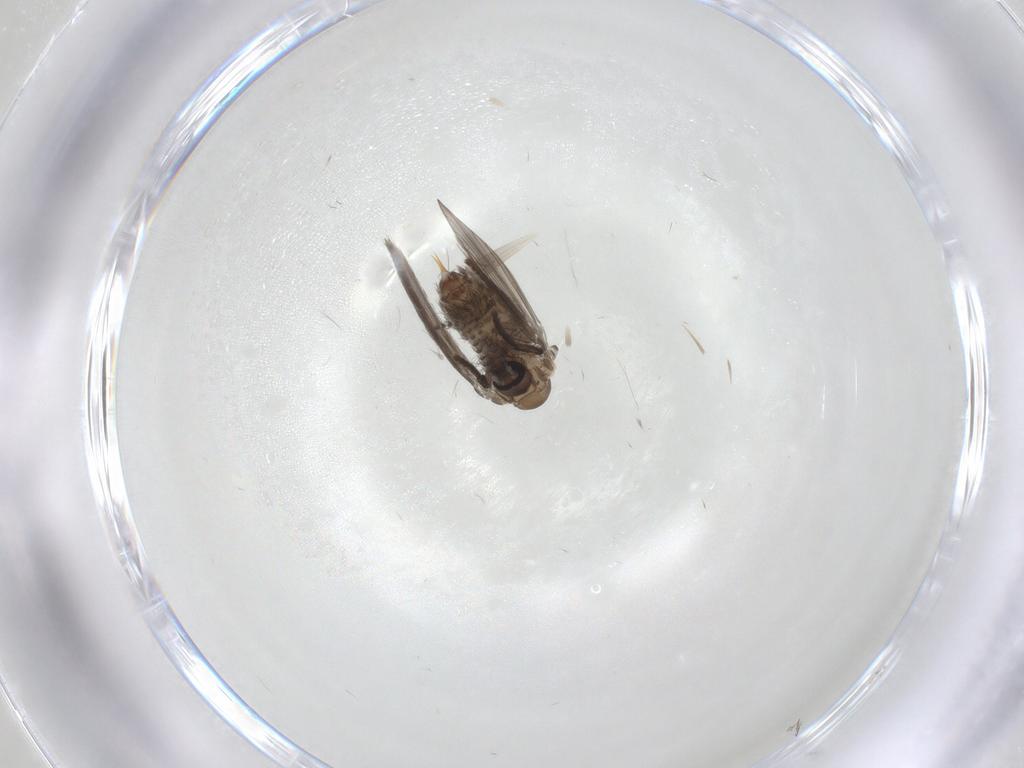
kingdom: Animalia
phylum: Arthropoda
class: Insecta
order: Diptera
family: Psychodidae
